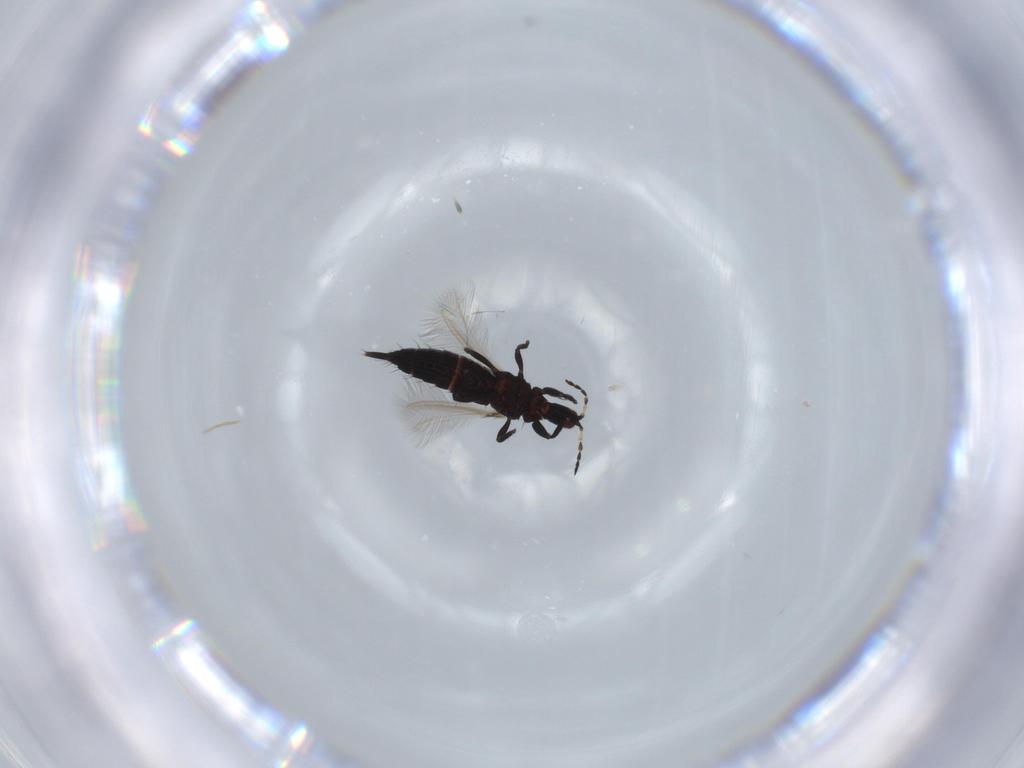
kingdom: Animalia
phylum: Arthropoda
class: Insecta
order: Thysanoptera
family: Phlaeothripidae
